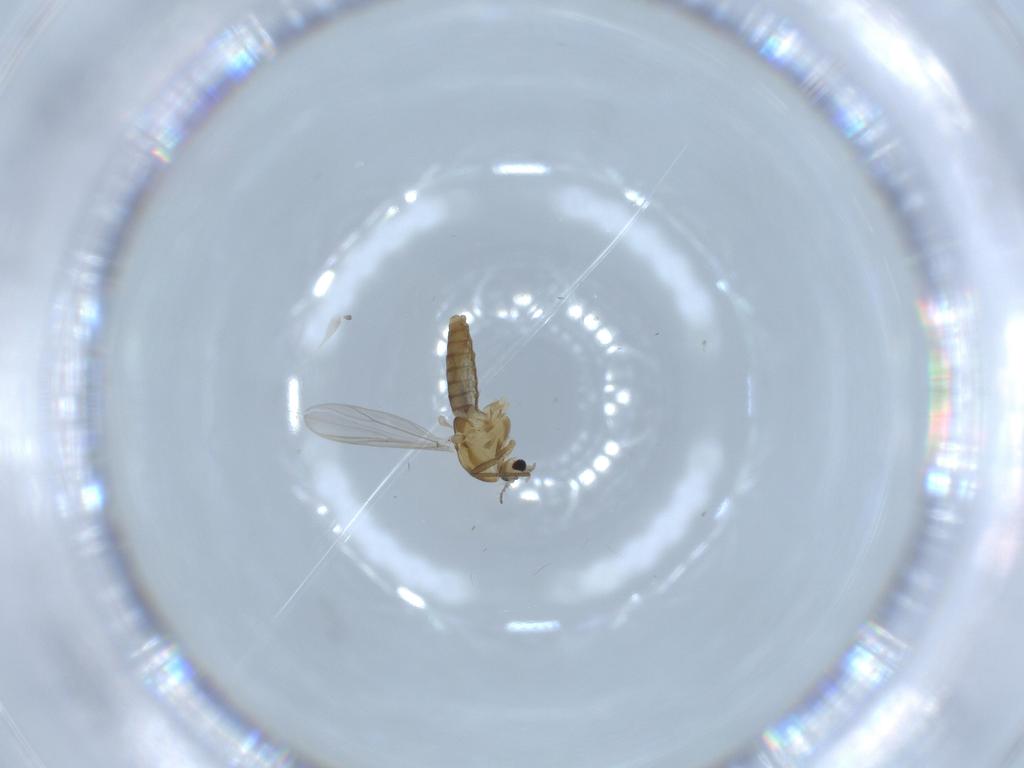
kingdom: Animalia
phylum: Arthropoda
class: Insecta
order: Diptera
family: Chironomidae
